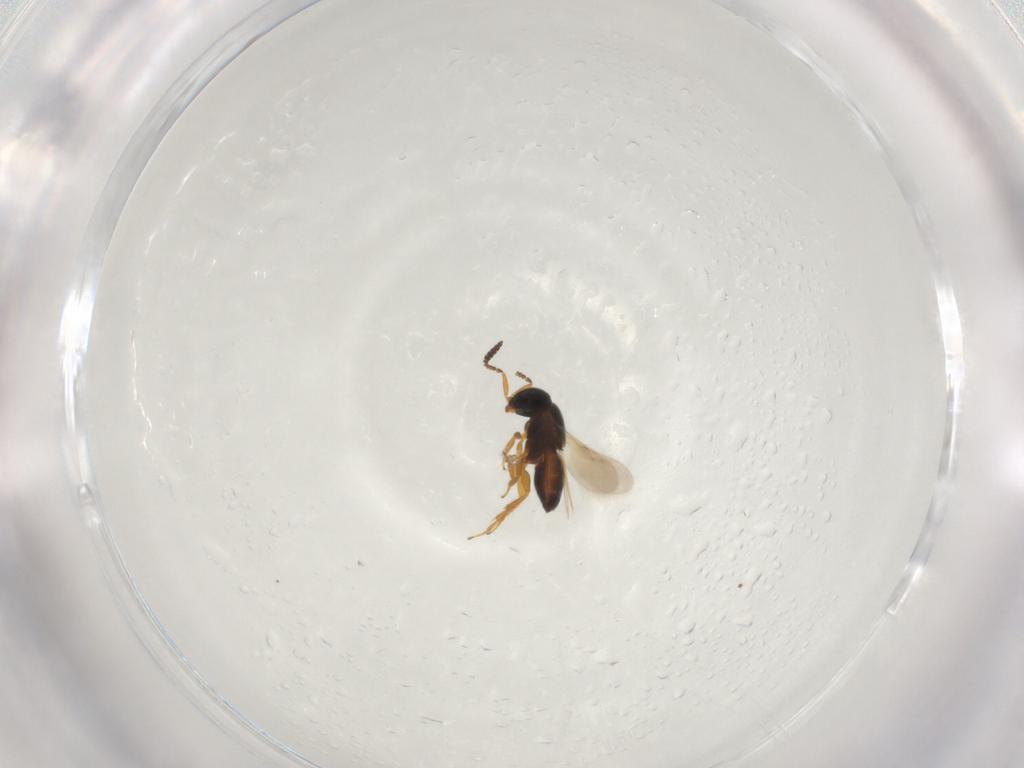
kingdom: Animalia
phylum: Arthropoda
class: Insecta
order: Hymenoptera
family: Scelionidae
